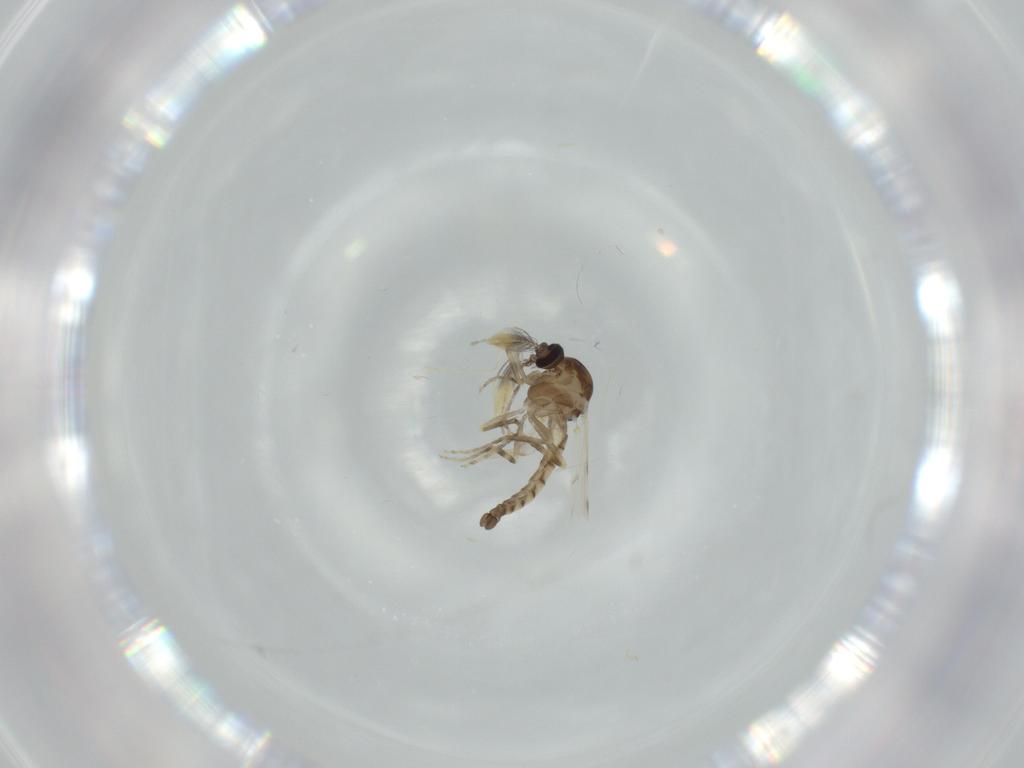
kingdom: Animalia
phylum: Arthropoda
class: Insecta
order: Diptera
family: Ceratopogonidae
